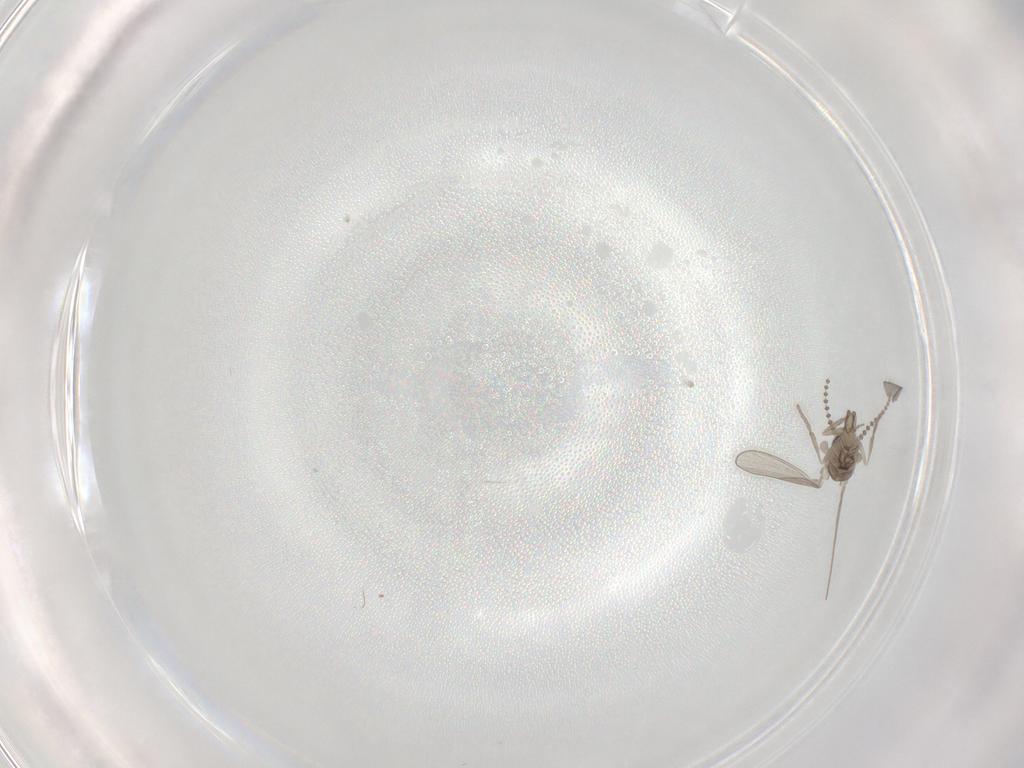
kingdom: Animalia
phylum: Arthropoda
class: Insecta
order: Diptera
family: Psychodidae
